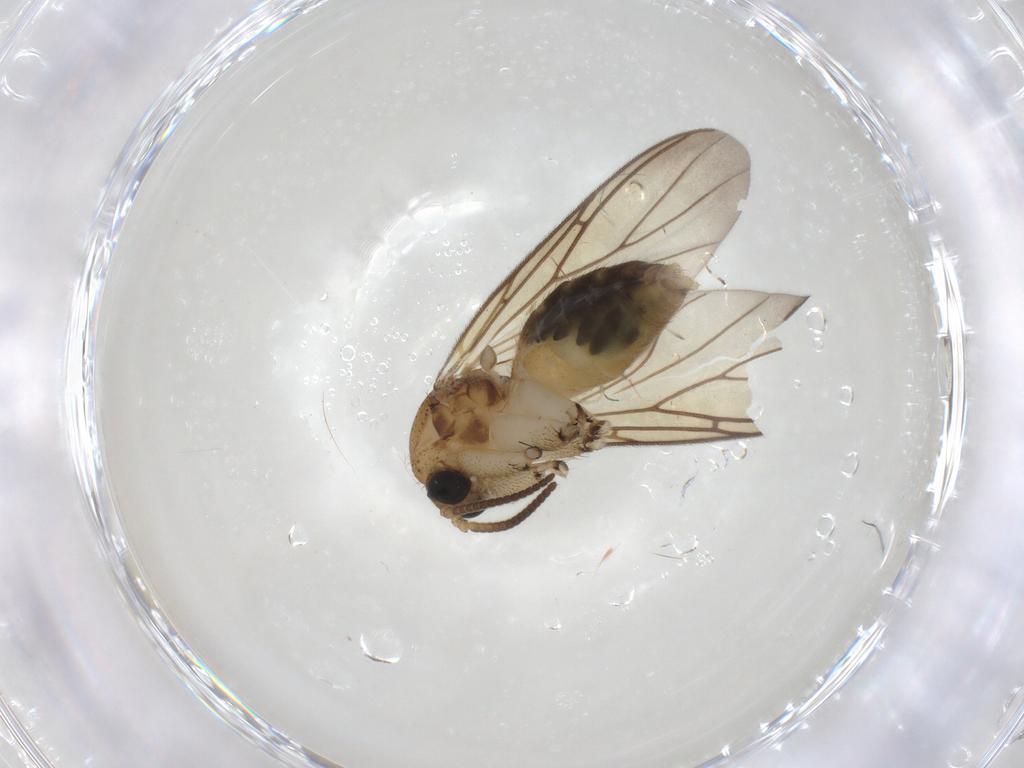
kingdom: Animalia
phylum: Arthropoda
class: Insecta
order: Diptera
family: Mycetophilidae
